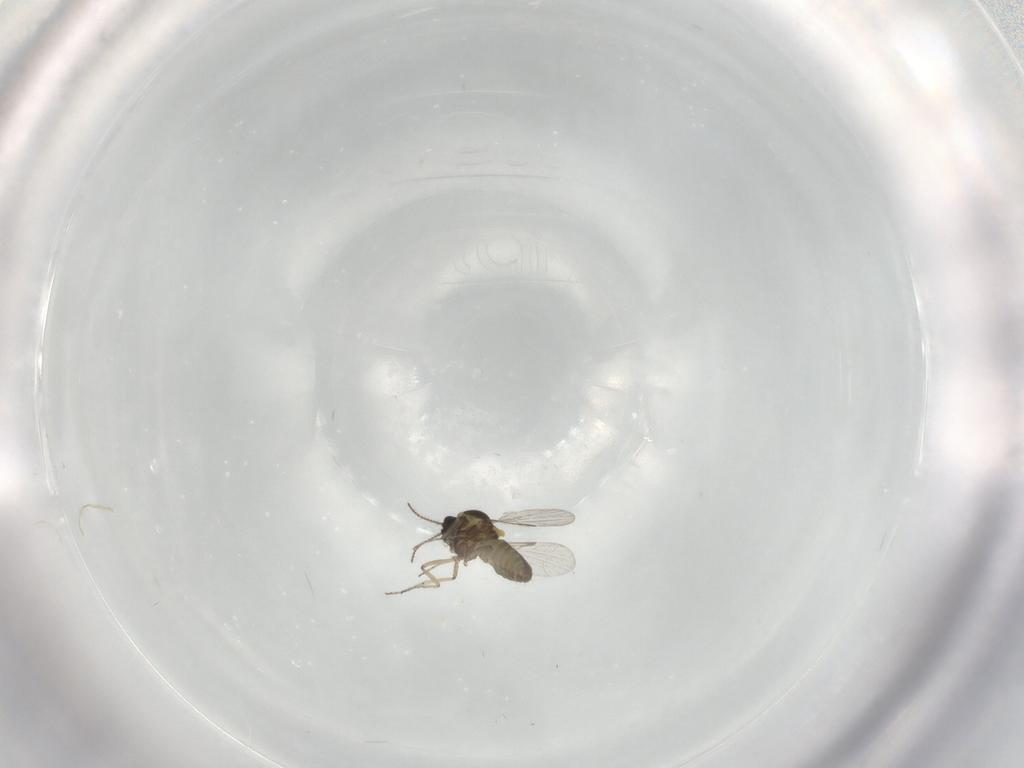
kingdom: Animalia
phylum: Arthropoda
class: Insecta
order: Diptera
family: Ceratopogonidae
